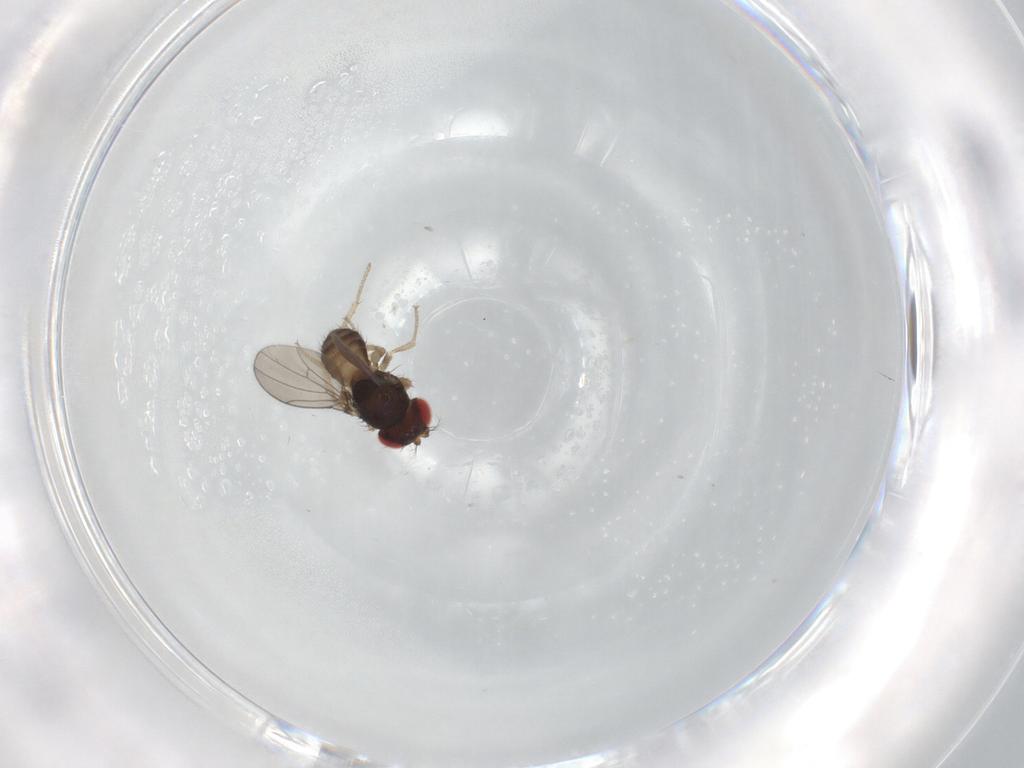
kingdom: Animalia
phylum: Arthropoda
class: Insecta
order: Diptera
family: Drosophilidae
